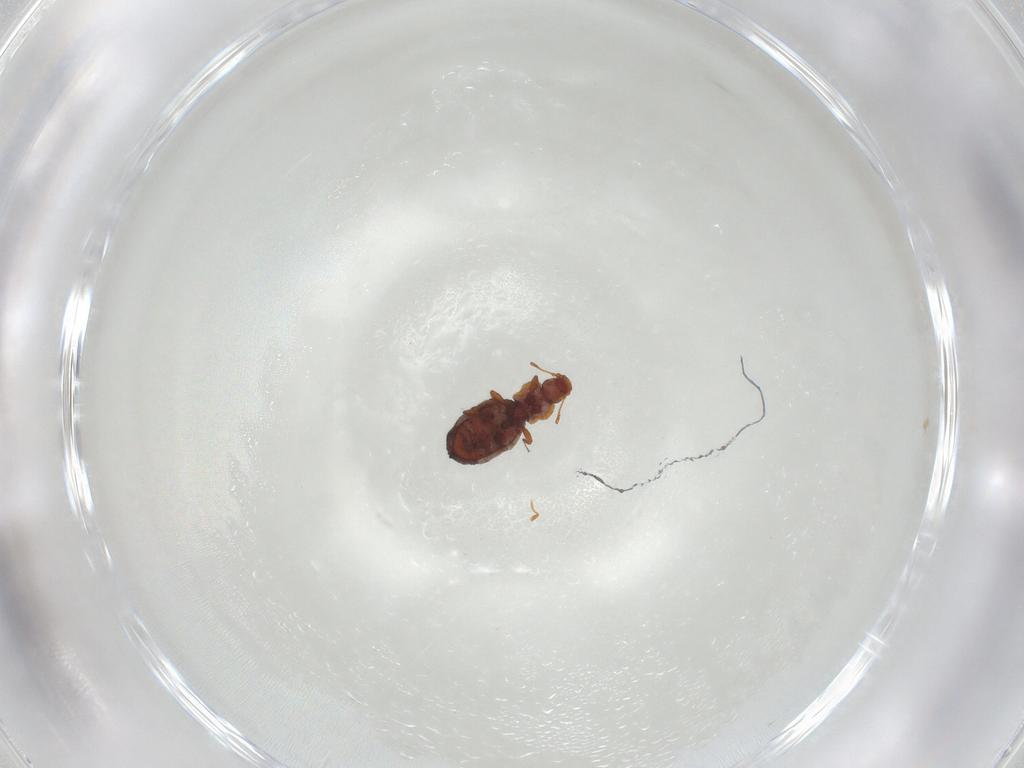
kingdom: Animalia
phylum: Arthropoda
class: Insecta
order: Coleoptera
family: Latridiidae
